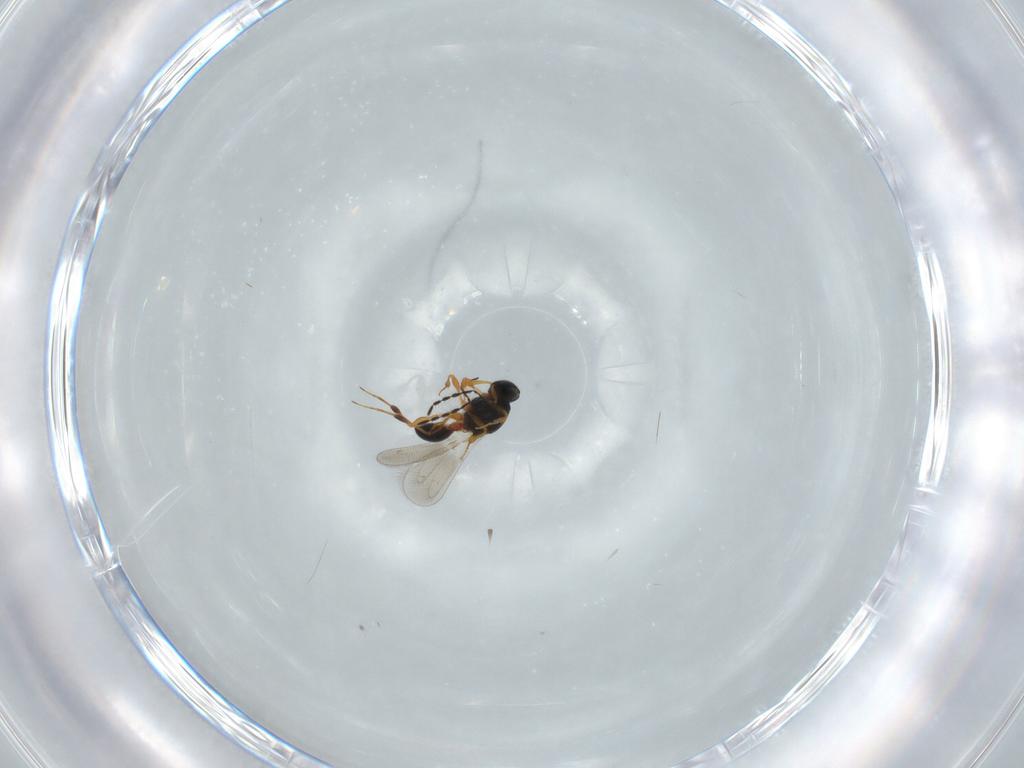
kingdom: Animalia
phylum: Arthropoda
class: Insecta
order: Hymenoptera
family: Platygastridae
